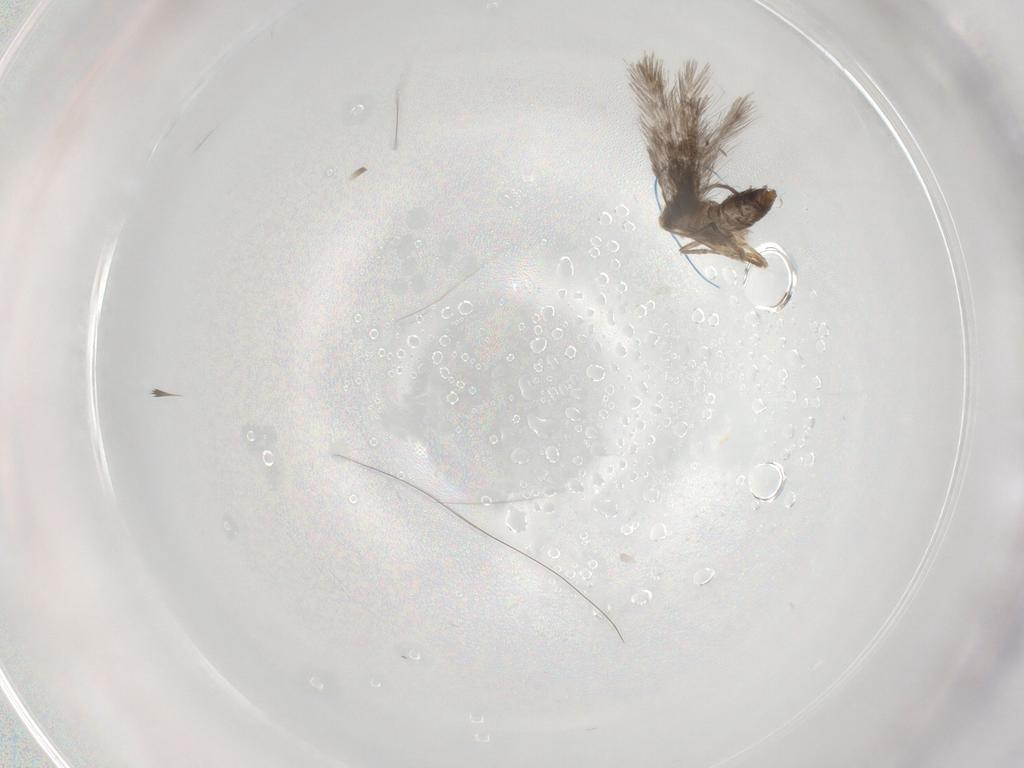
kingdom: Animalia
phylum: Arthropoda
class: Insecta
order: Lepidoptera
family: Nepticulidae
